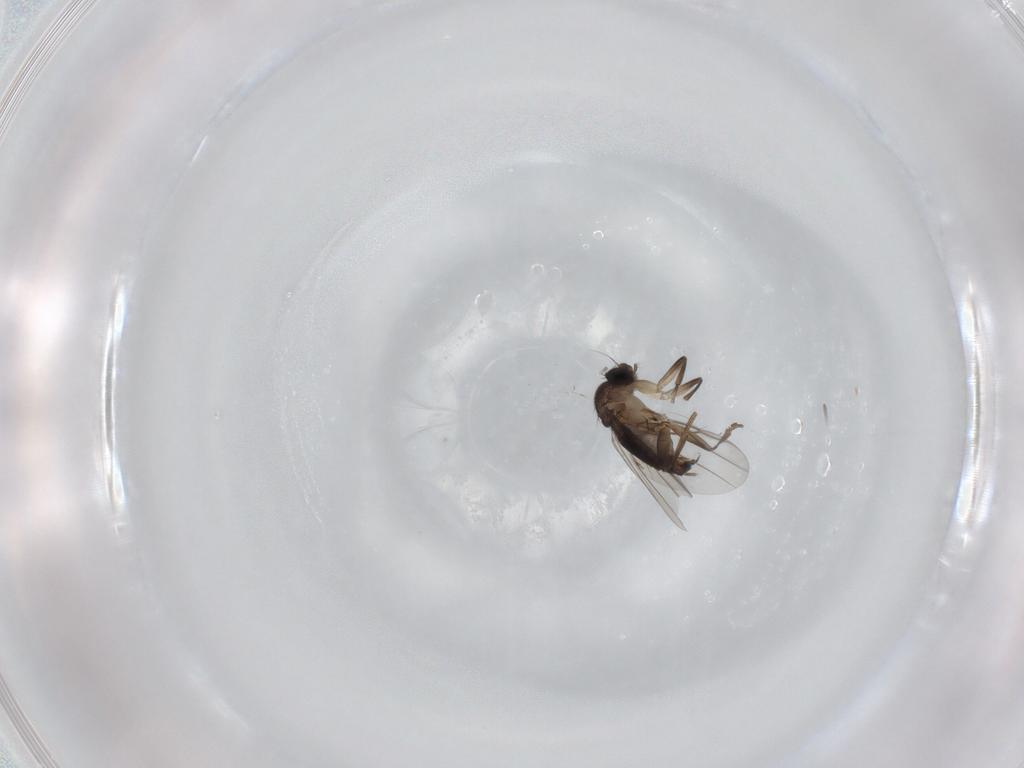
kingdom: Animalia
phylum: Arthropoda
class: Insecta
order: Diptera
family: Phoridae
